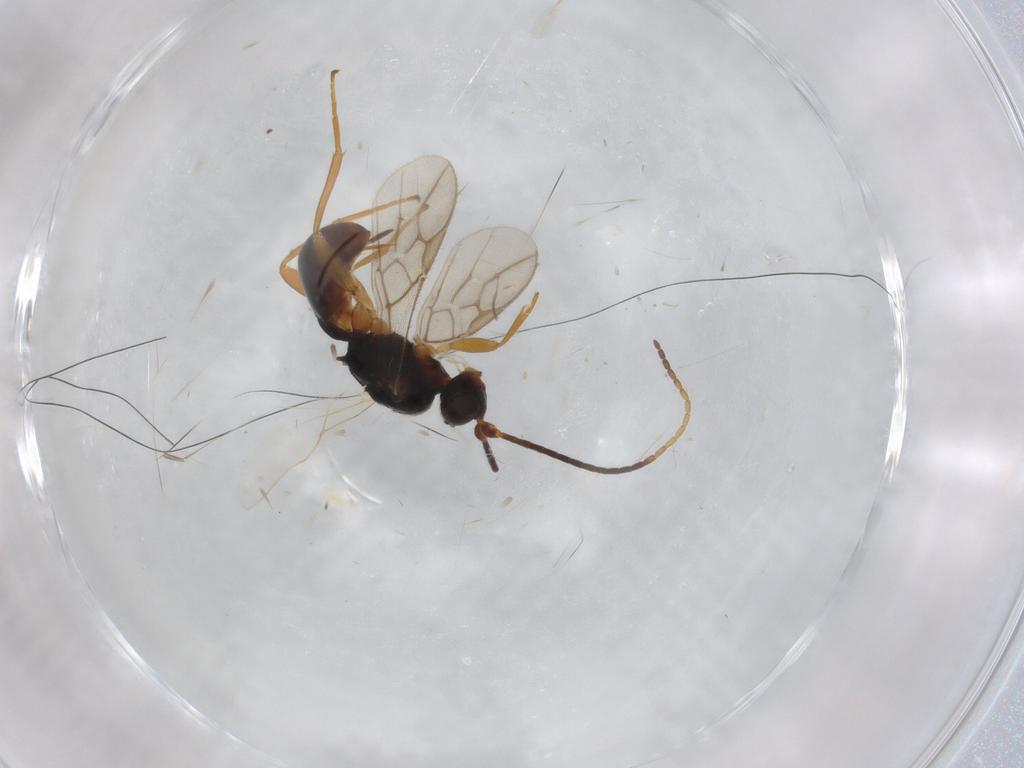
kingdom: Animalia
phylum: Arthropoda
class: Insecta
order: Hymenoptera
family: Braconidae
